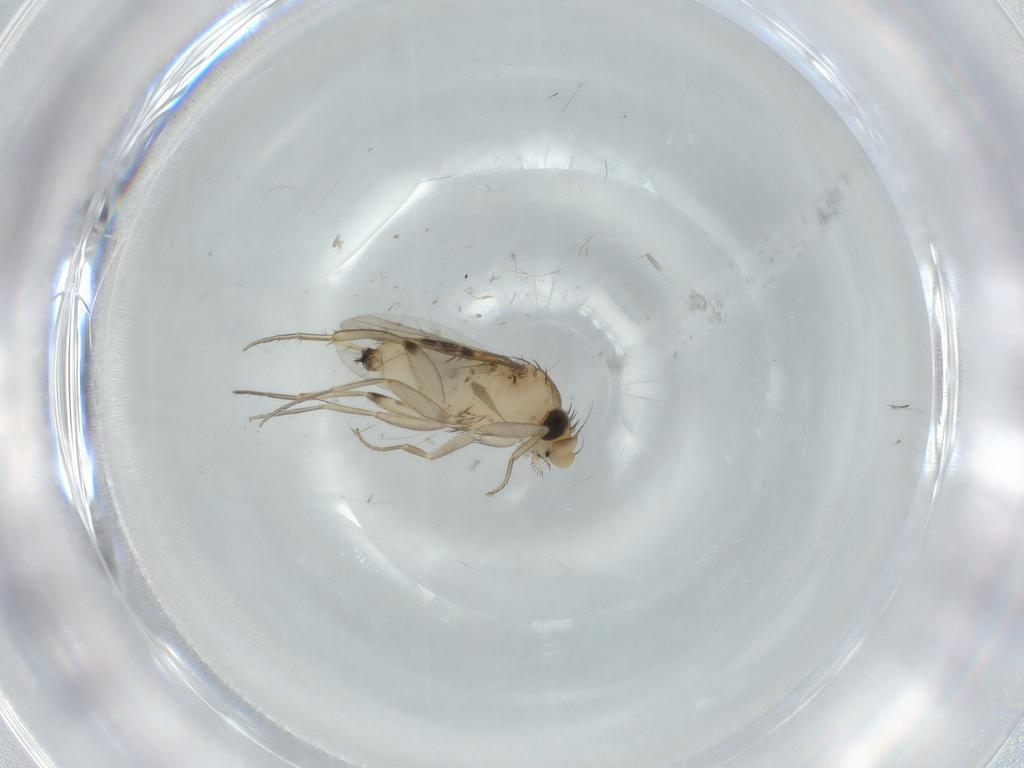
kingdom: Animalia
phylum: Arthropoda
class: Insecta
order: Diptera
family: Phoridae
